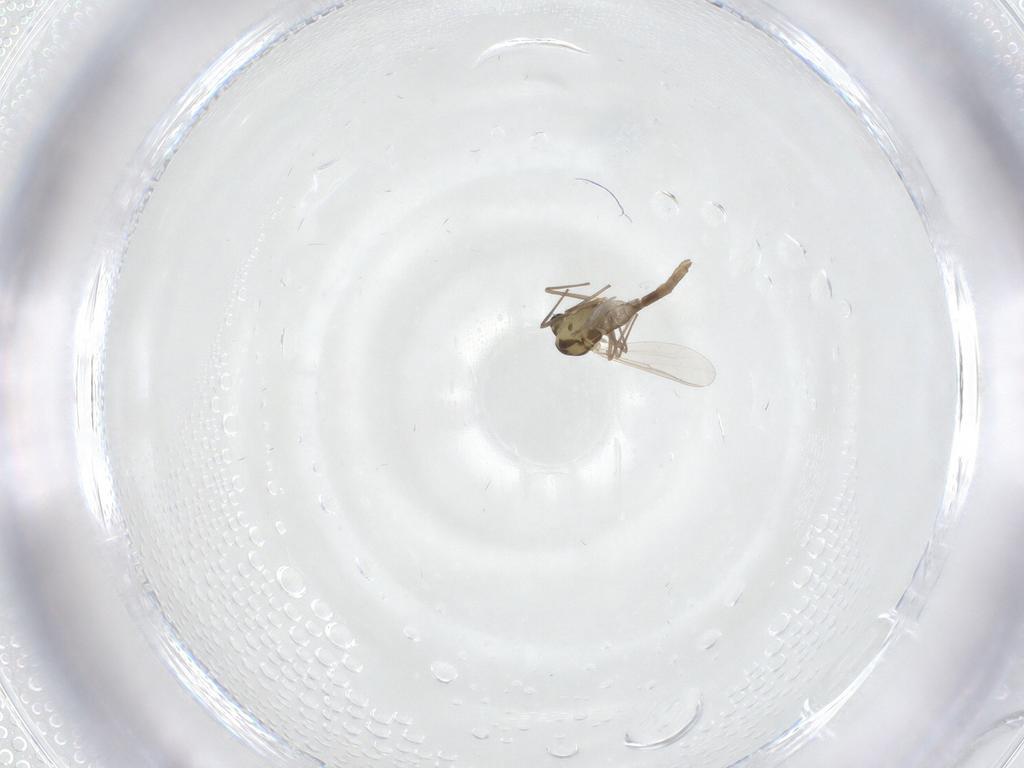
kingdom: Animalia
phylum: Arthropoda
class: Insecta
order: Diptera
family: Chironomidae
